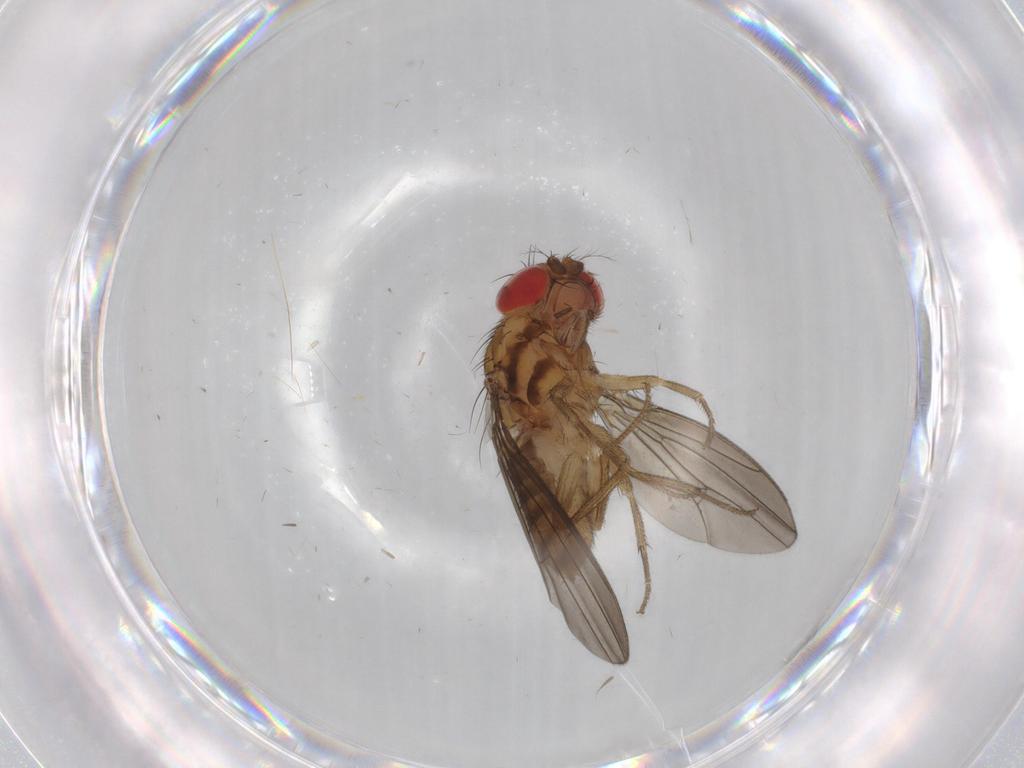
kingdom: Animalia
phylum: Arthropoda
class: Insecta
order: Diptera
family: Drosophilidae
